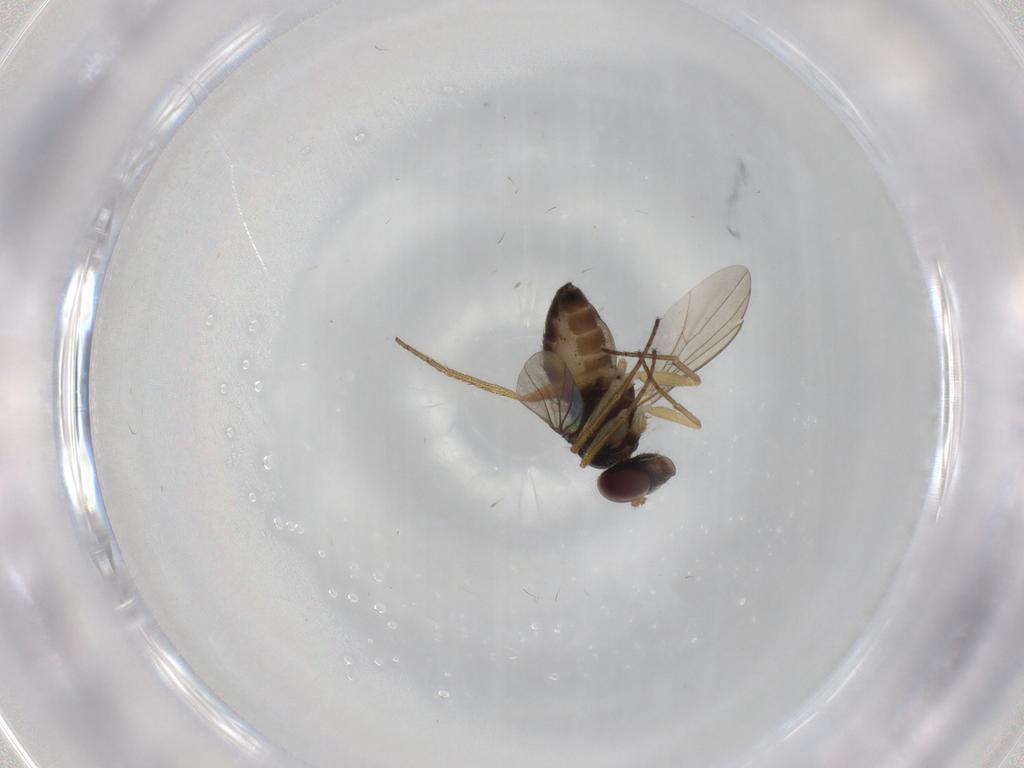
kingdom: Animalia
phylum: Arthropoda
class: Insecta
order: Diptera
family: Dolichopodidae
